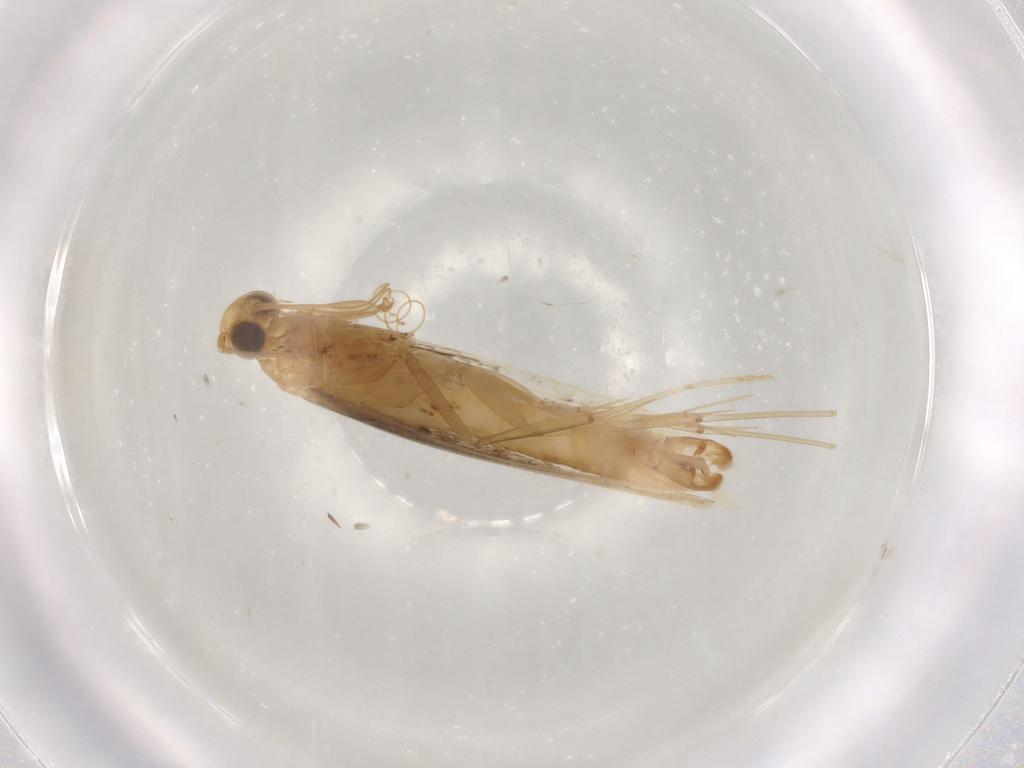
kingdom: Animalia
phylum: Arthropoda
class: Insecta
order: Lepidoptera
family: Gracillariidae
